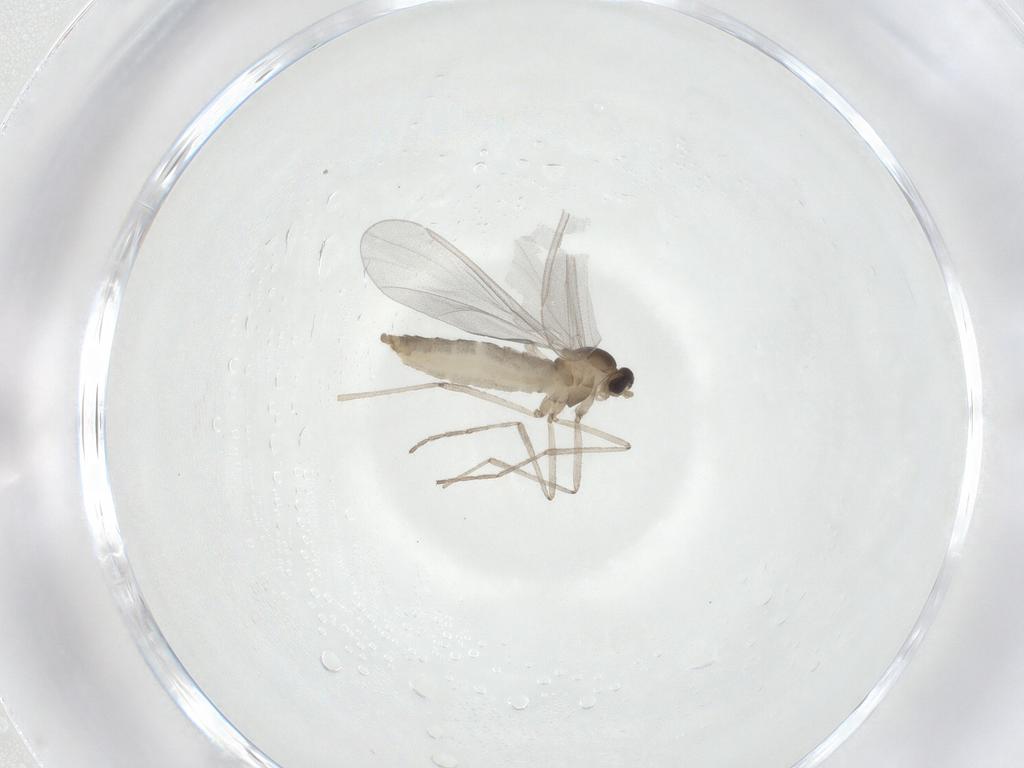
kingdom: Animalia
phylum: Arthropoda
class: Insecta
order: Diptera
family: Cecidomyiidae
